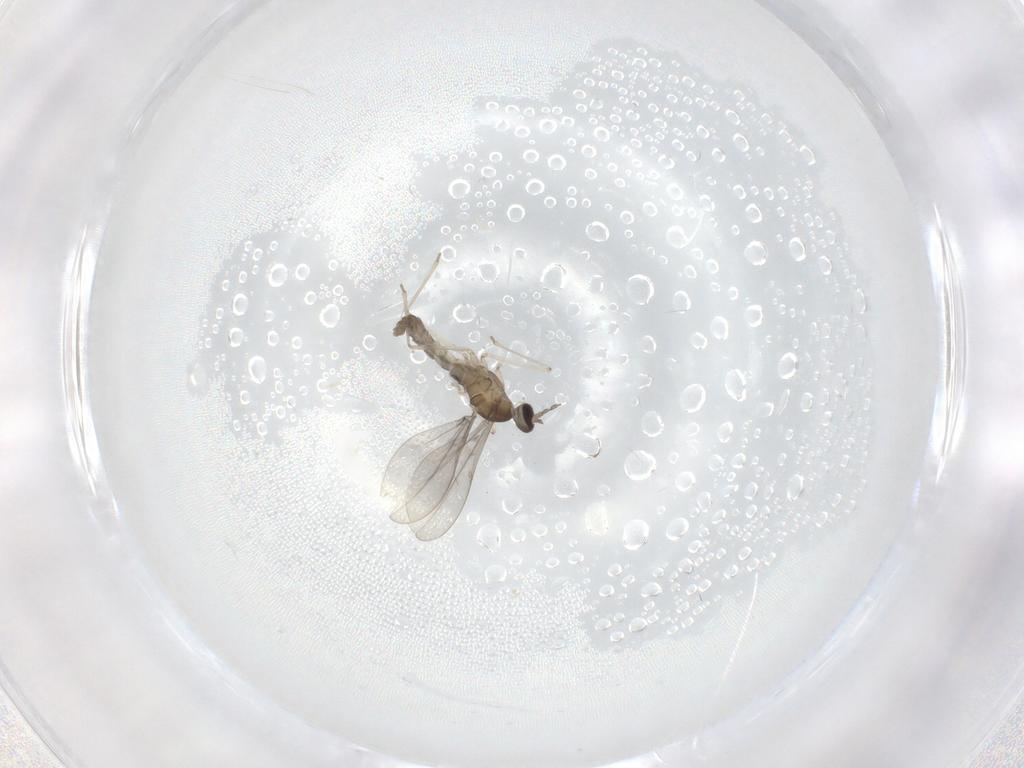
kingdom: Animalia
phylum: Arthropoda
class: Insecta
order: Diptera
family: Cecidomyiidae
